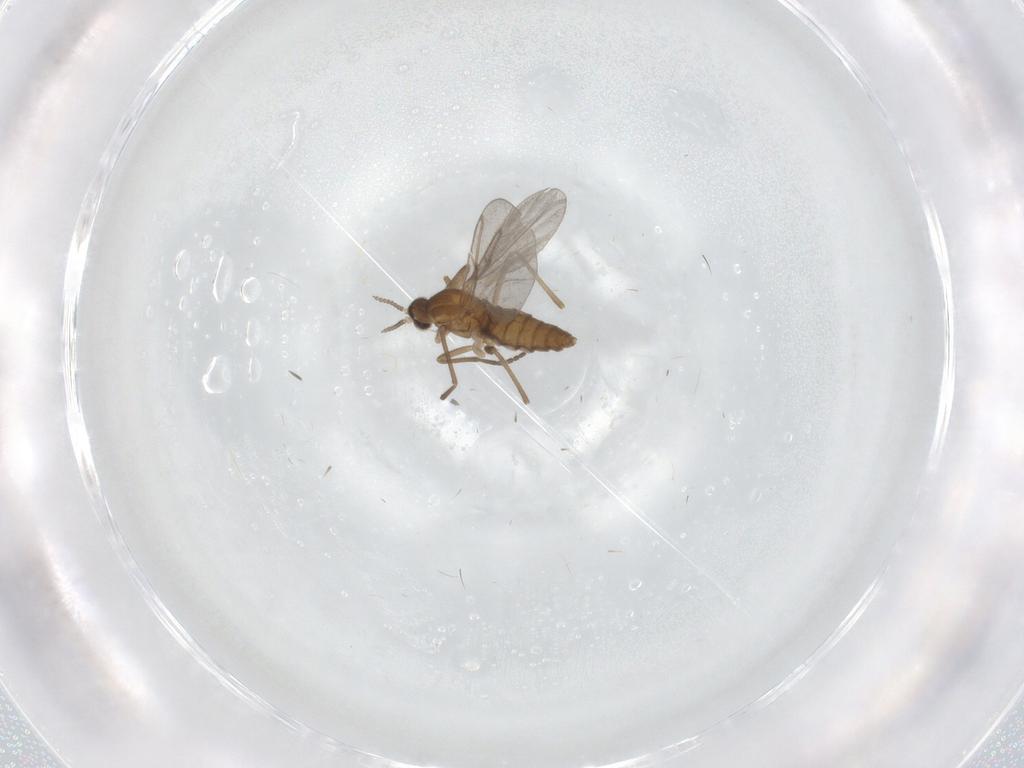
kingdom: Animalia
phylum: Arthropoda
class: Insecta
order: Diptera
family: Cecidomyiidae
